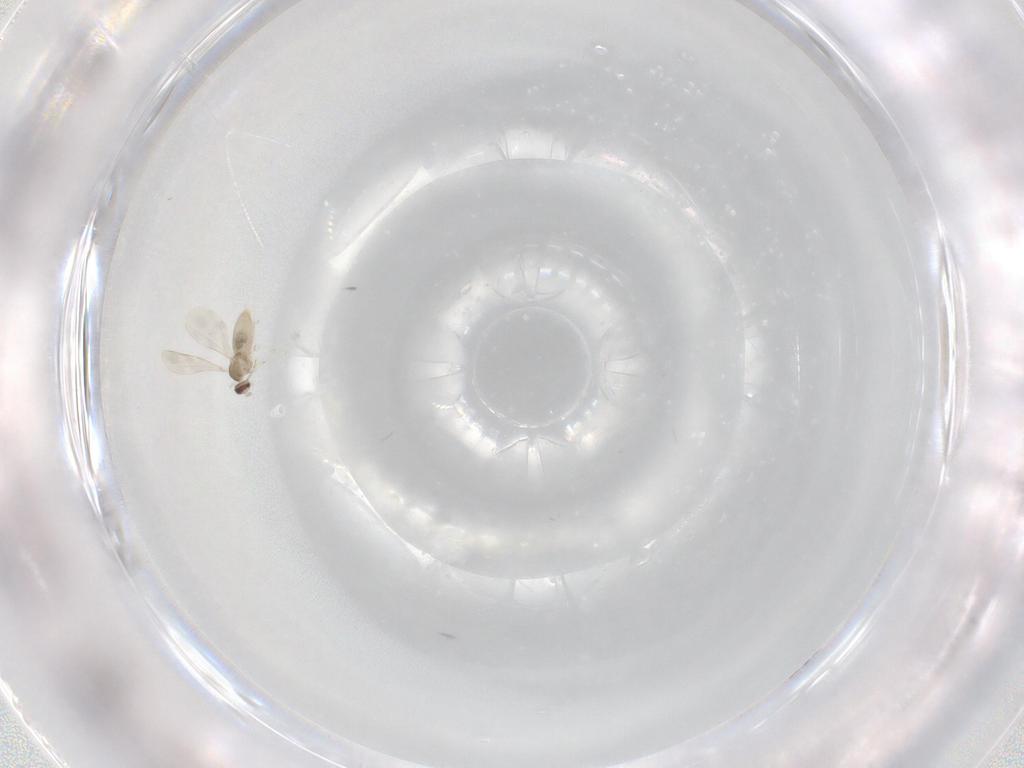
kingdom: Animalia
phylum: Arthropoda
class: Insecta
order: Diptera
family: Cecidomyiidae
